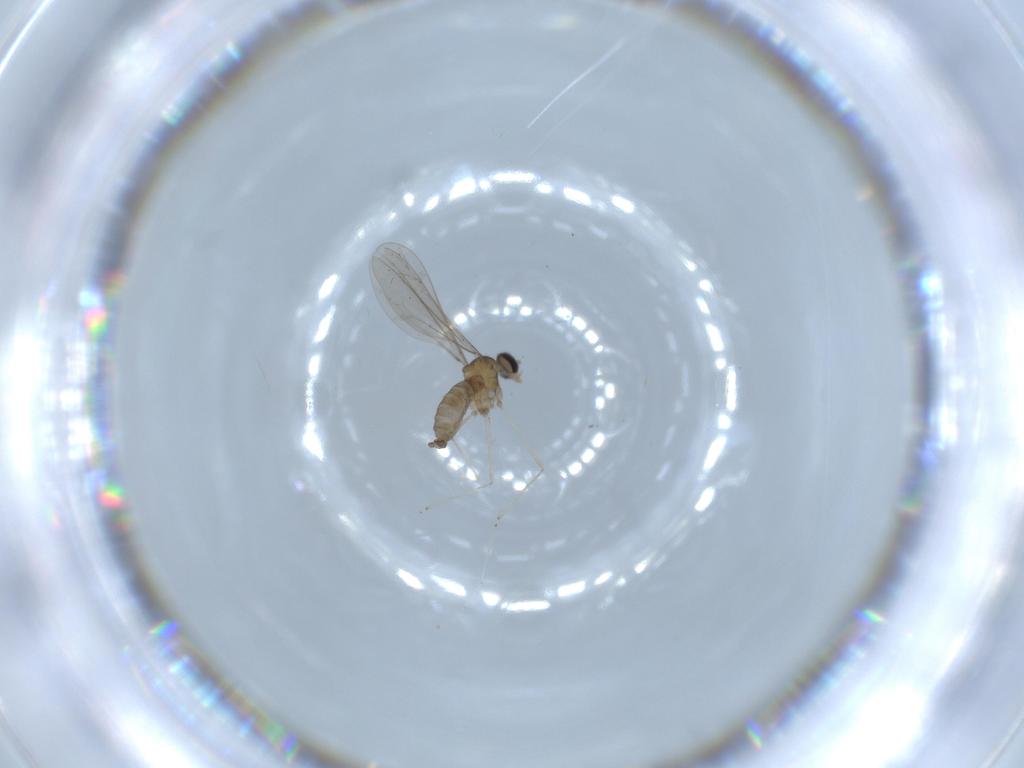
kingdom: Animalia
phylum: Arthropoda
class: Insecta
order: Diptera
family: Cecidomyiidae
